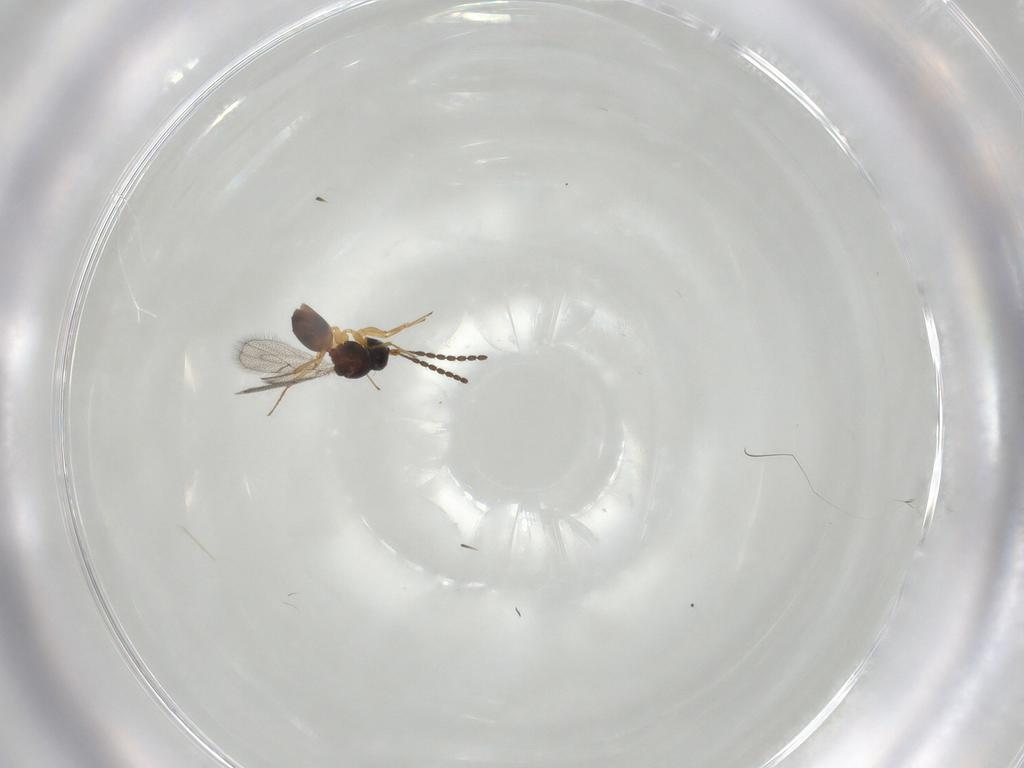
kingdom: Animalia
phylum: Arthropoda
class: Insecta
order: Hymenoptera
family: Figitidae
